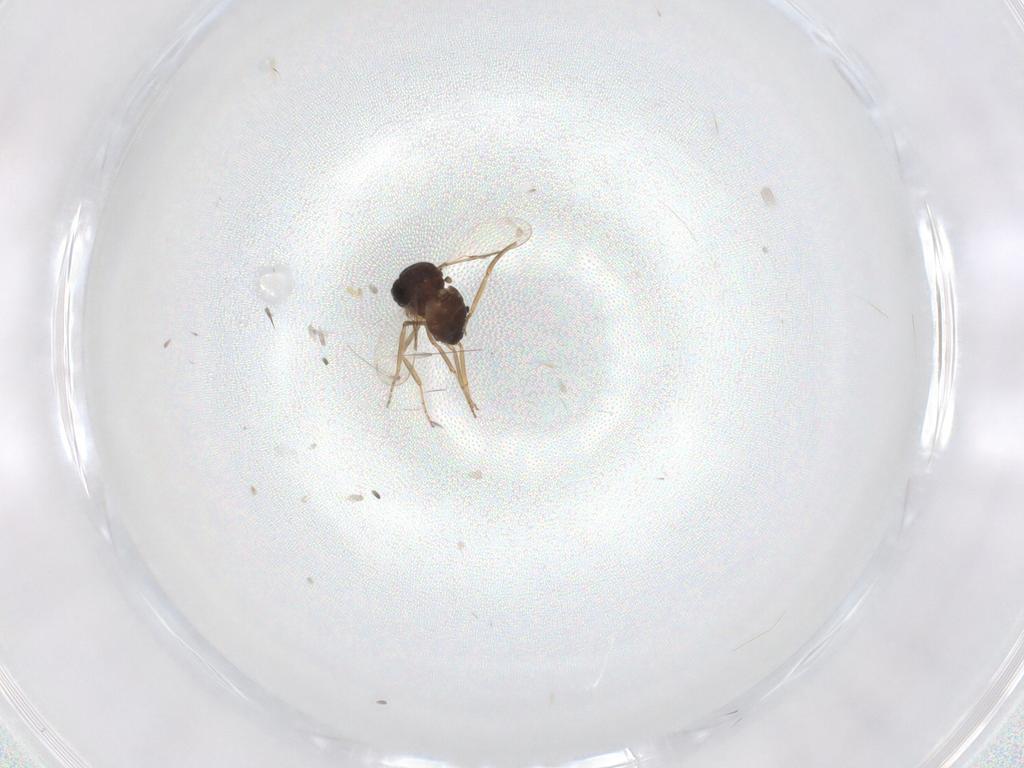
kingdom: Animalia
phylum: Arthropoda
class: Insecta
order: Diptera
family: Ceratopogonidae
